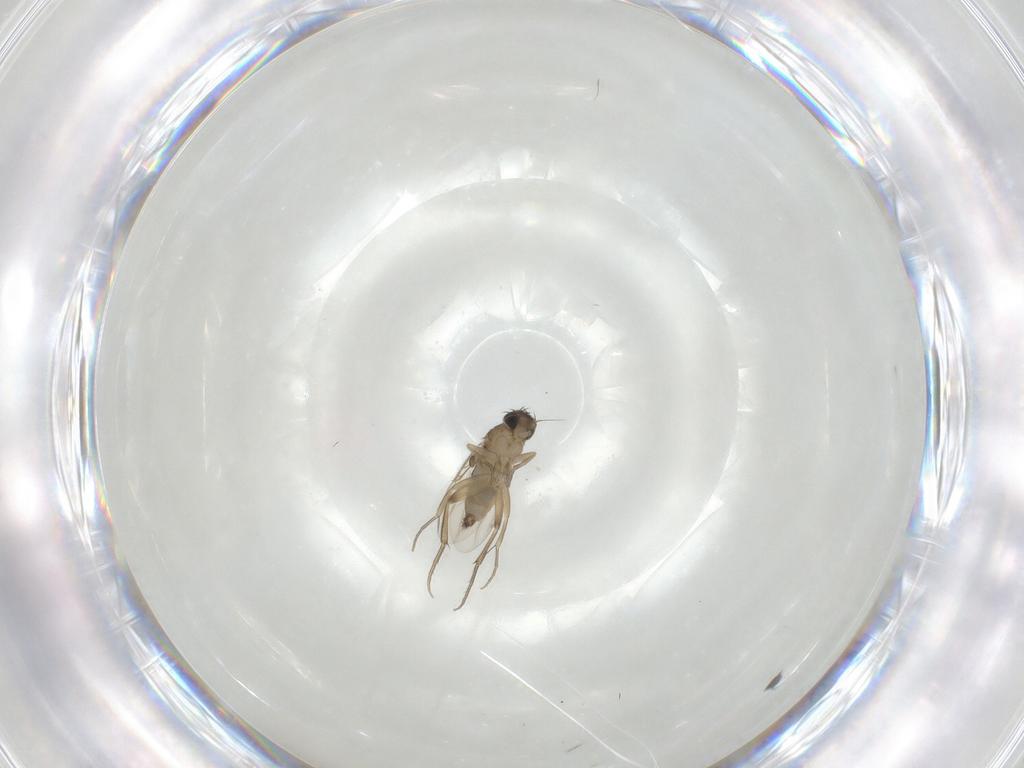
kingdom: Animalia
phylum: Arthropoda
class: Insecta
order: Diptera
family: Phoridae
